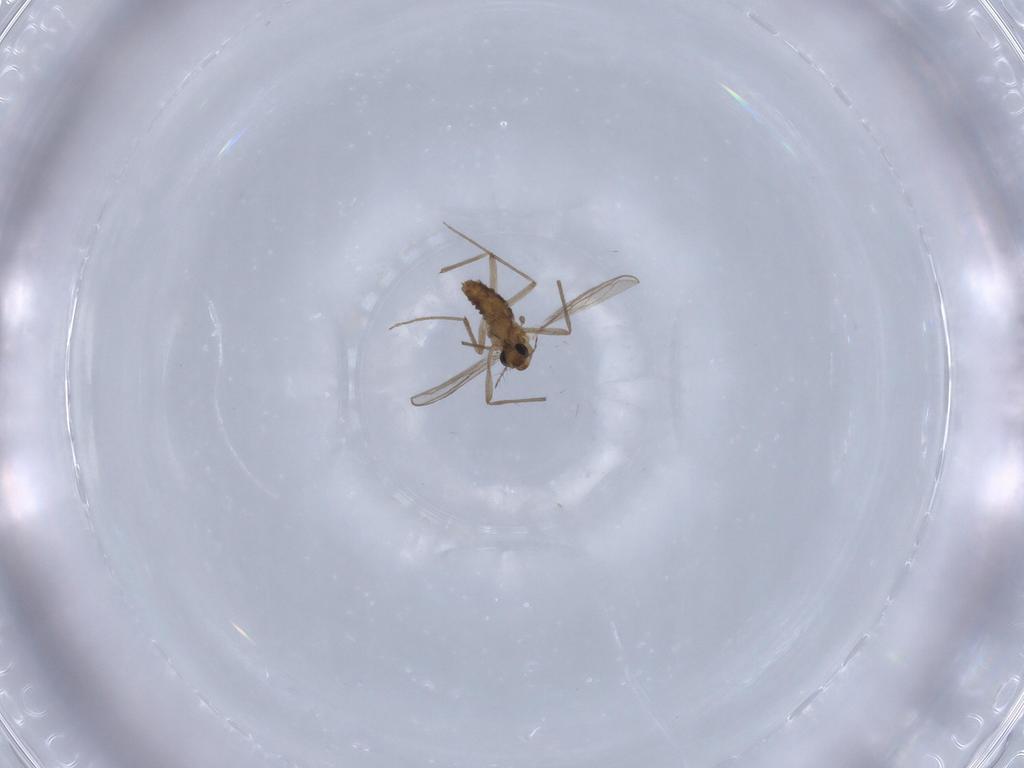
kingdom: Animalia
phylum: Arthropoda
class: Insecta
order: Diptera
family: Chironomidae
